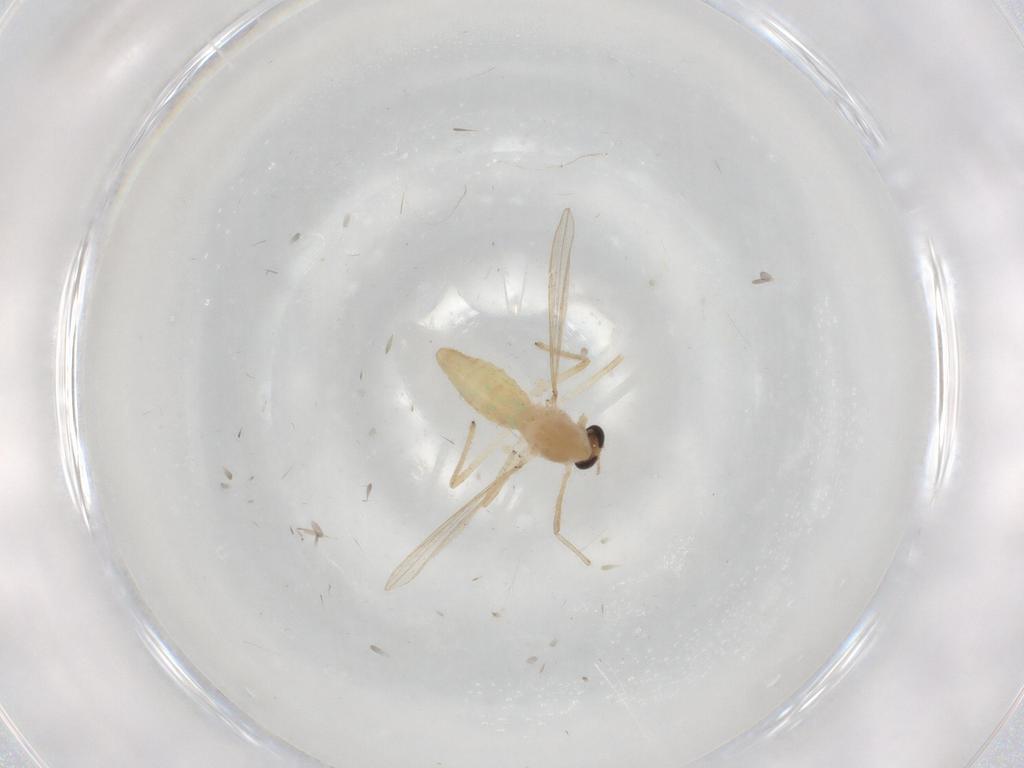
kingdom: Animalia
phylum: Arthropoda
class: Insecta
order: Diptera
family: Chironomidae
